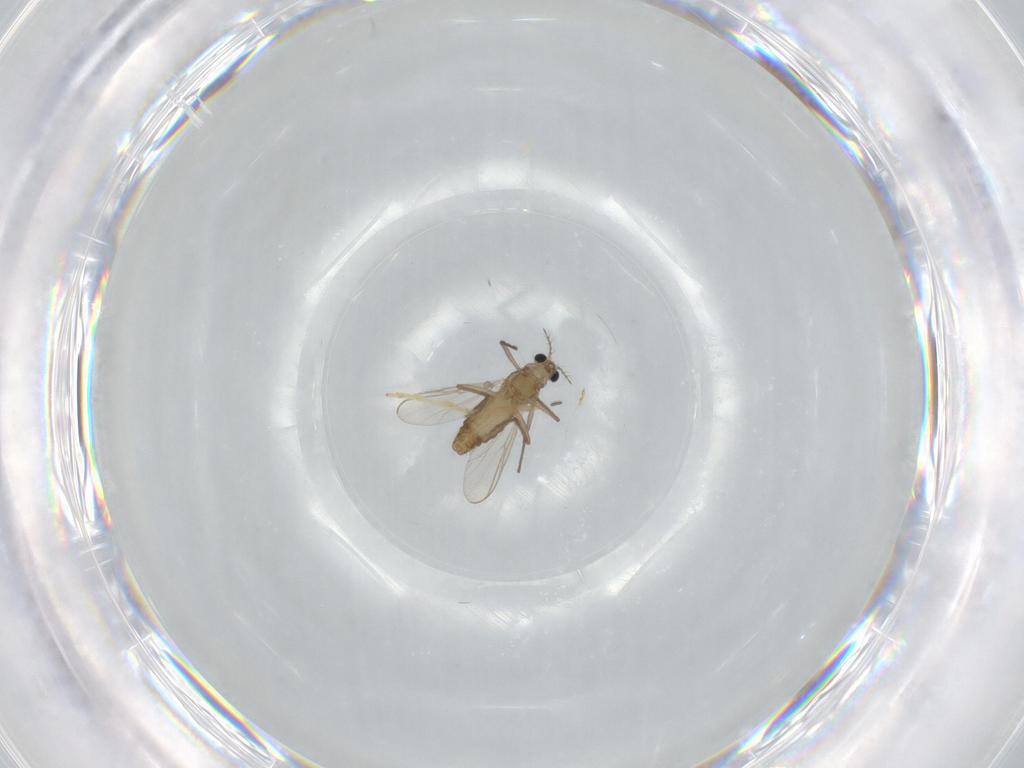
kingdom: Animalia
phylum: Arthropoda
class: Insecta
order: Diptera
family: Chironomidae
